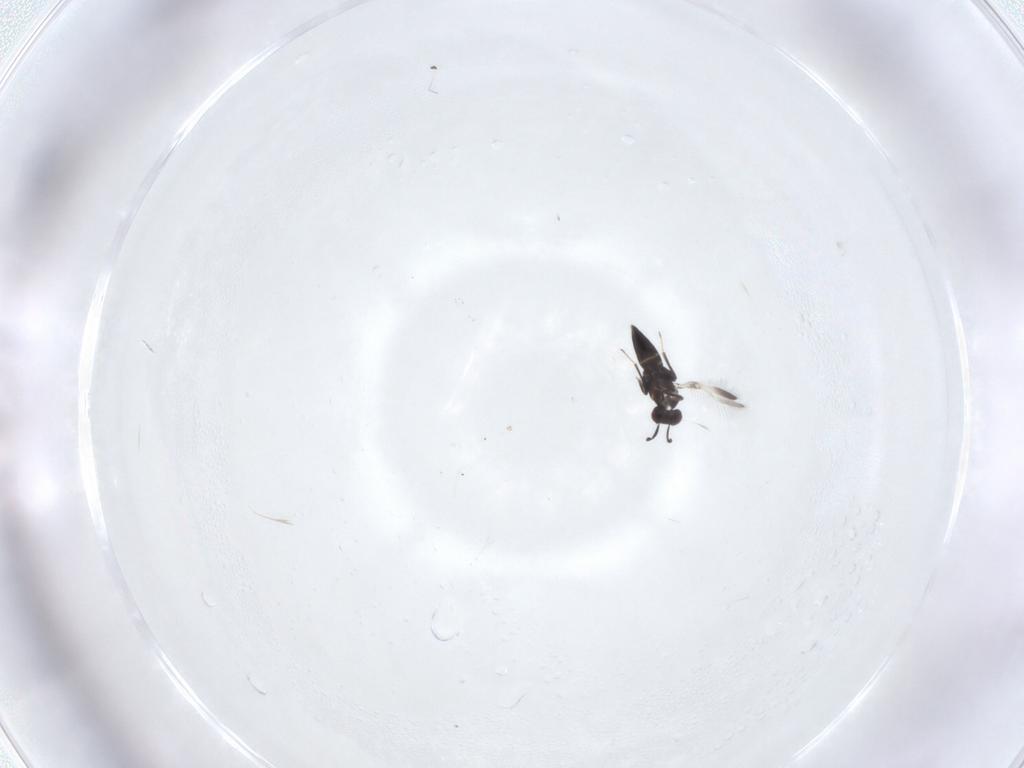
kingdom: Animalia
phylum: Arthropoda
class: Insecta
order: Hymenoptera
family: Mymaridae
